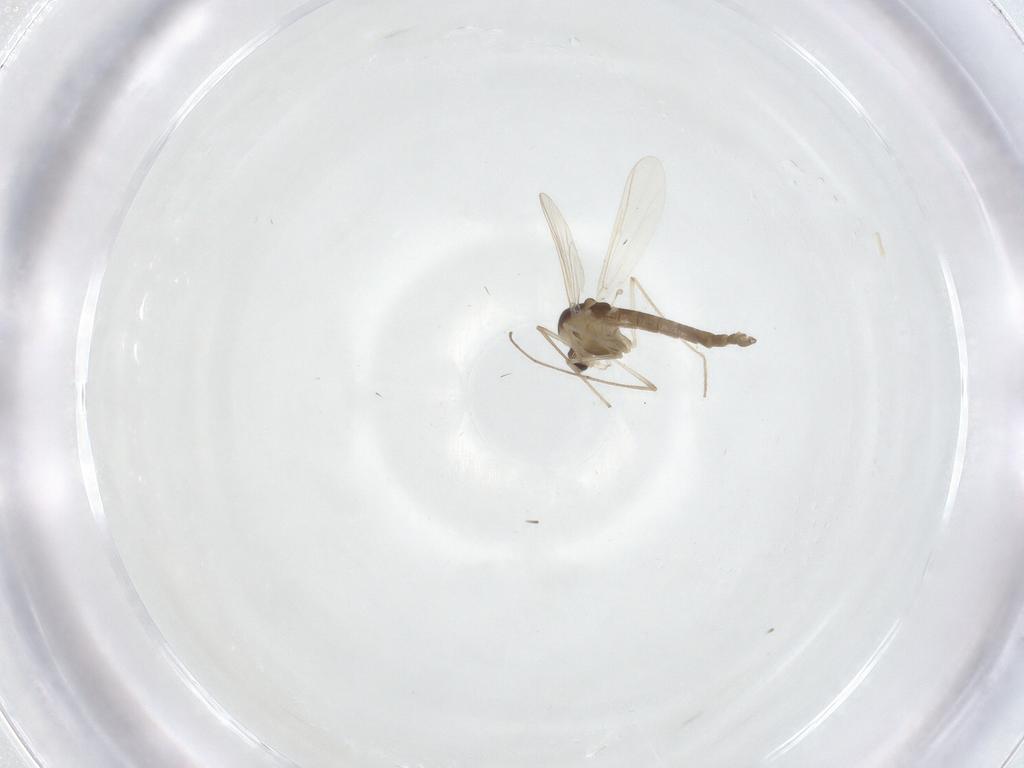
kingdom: Animalia
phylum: Arthropoda
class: Insecta
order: Diptera
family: Chironomidae
